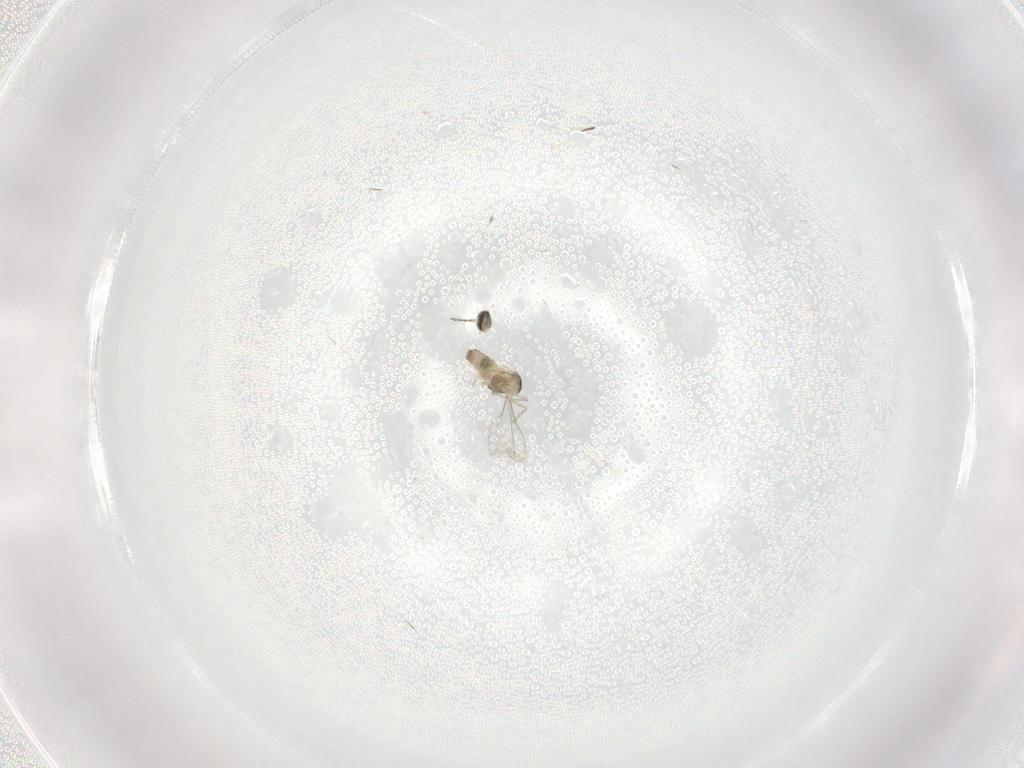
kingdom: Animalia
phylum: Arthropoda
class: Insecta
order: Diptera
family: Cecidomyiidae
